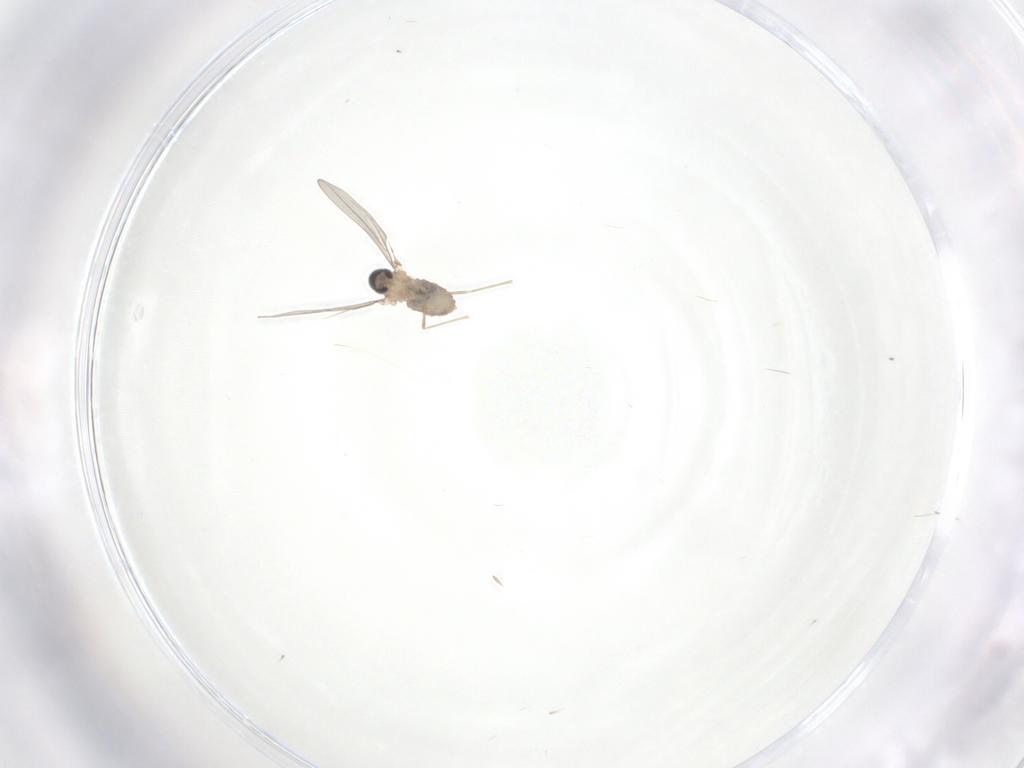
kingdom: Animalia
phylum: Arthropoda
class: Insecta
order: Diptera
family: Cecidomyiidae
